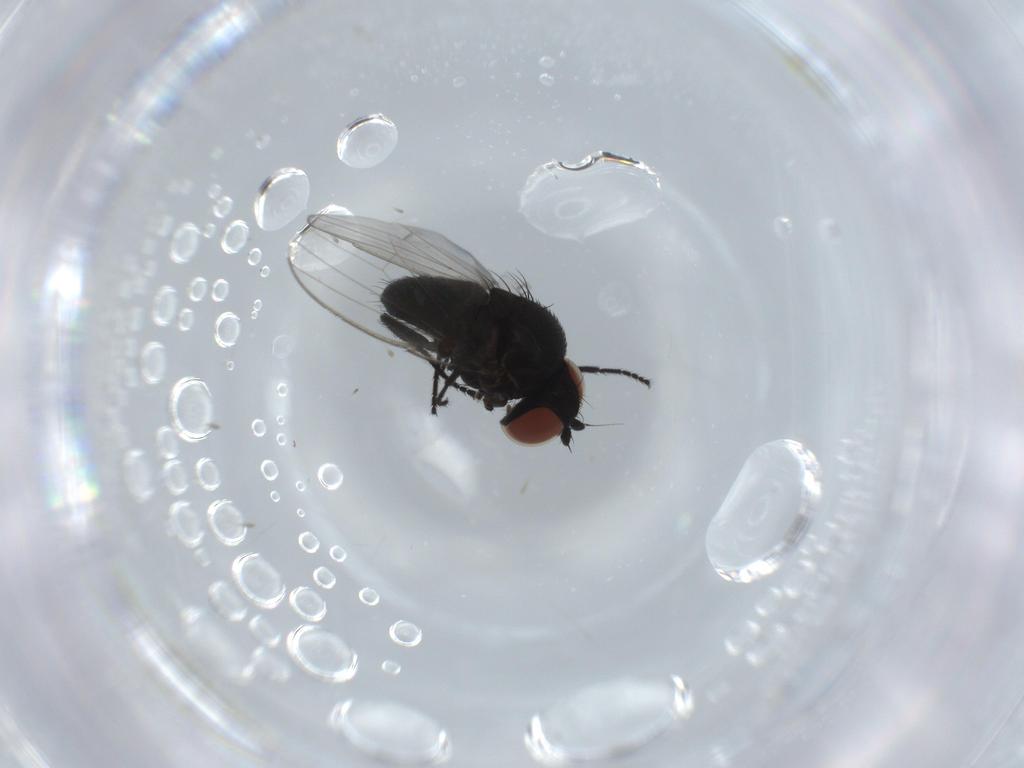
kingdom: Animalia
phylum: Arthropoda
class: Insecta
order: Diptera
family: Milichiidae
